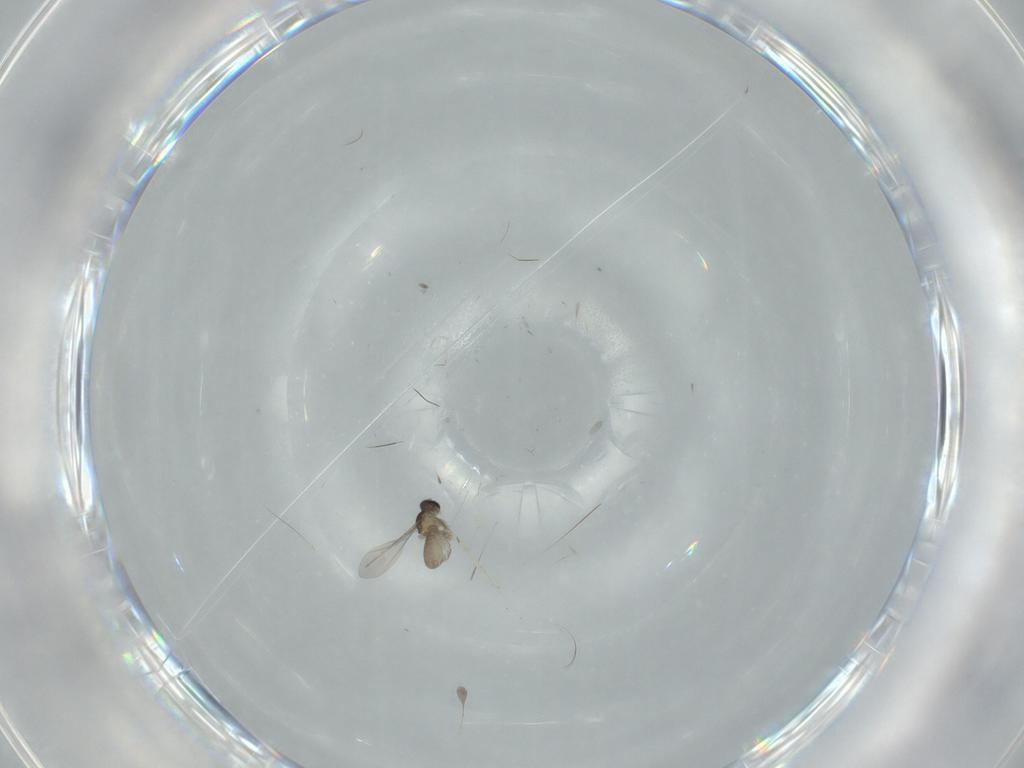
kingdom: Animalia
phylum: Arthropoda
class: Insecta
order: Diptera
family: Cecidomyiidae
